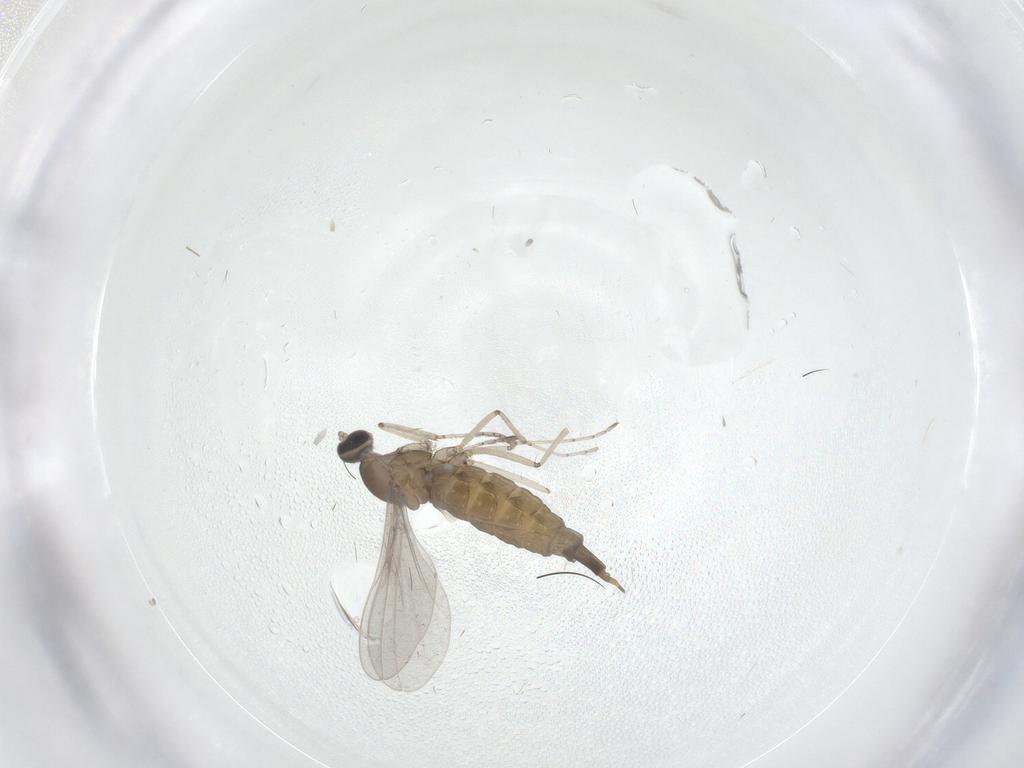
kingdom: Animalia
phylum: Arthropoda
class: Insecta
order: Diptera
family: Chironomidae
